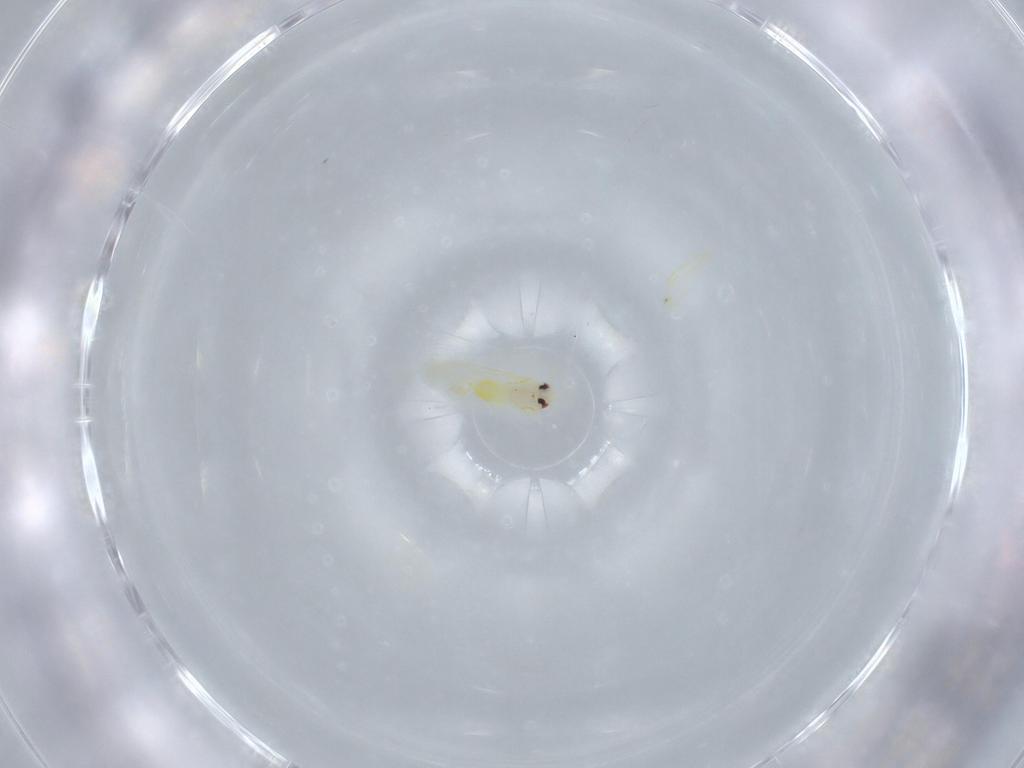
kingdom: Animalia
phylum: Arthropoda
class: Insecta
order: Hemiptera
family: Aleyrodidae
